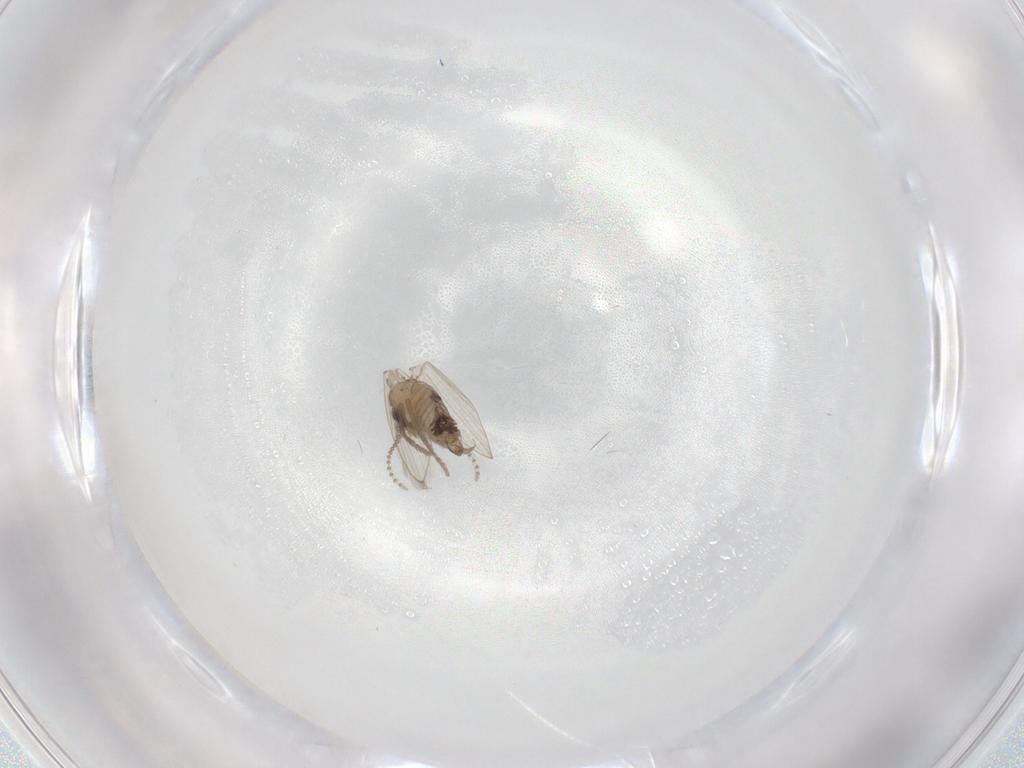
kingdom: Animalia
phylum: Arthropoda
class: Insecta
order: Diptera
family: Psychodidae
